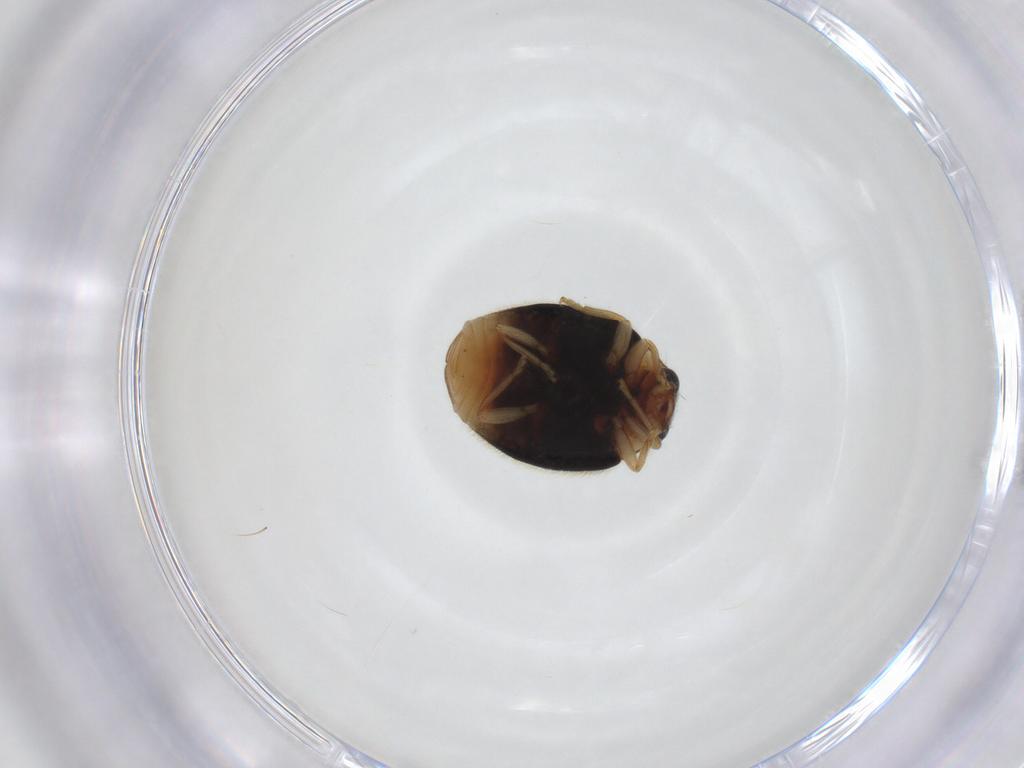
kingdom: Animalia
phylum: Arthropoda
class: Insecta
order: Coleoptera
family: Coccinellidae
